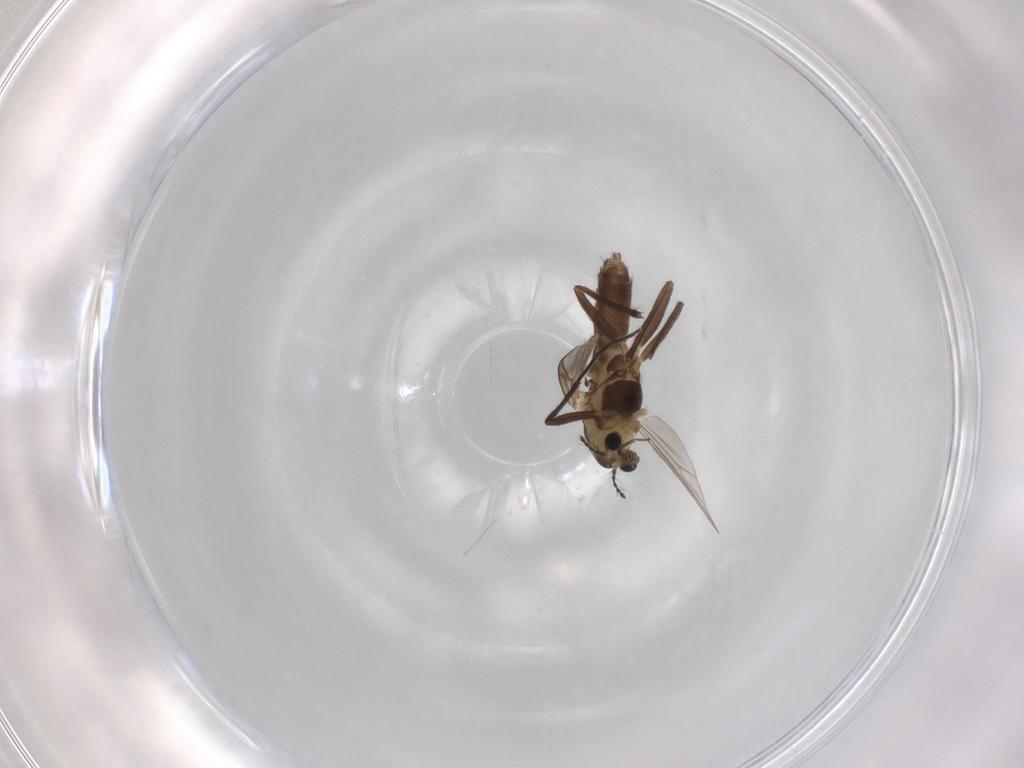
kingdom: Animalia
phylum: Arthropoda
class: Insecta
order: Diptera
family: Chironomidae
